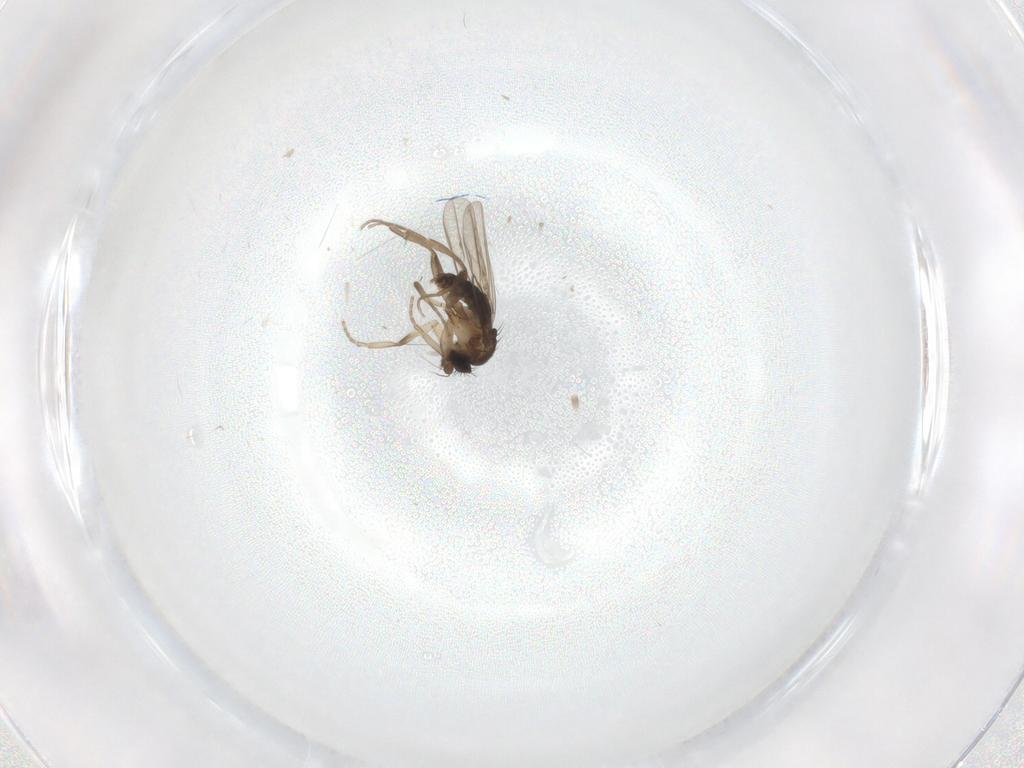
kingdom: Animalia
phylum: Arthropoda
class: Insecta
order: Diptera
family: Phoridae
